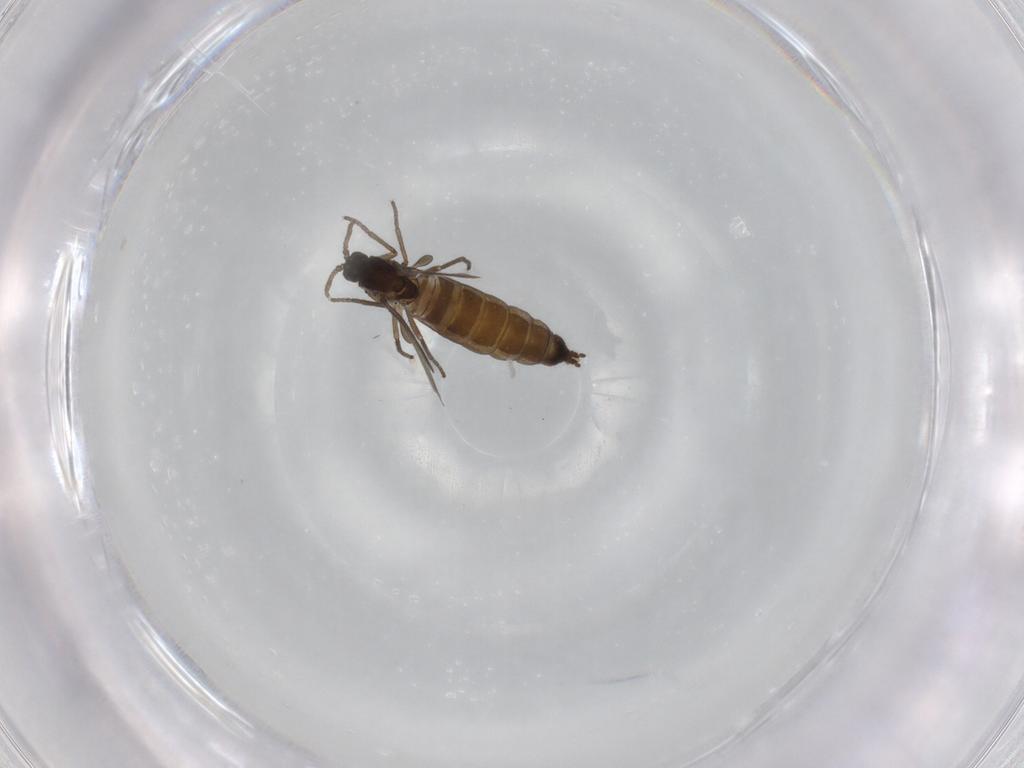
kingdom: Animalia
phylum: Arthropoda
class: Insecta
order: Diptera
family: Sciaridae
